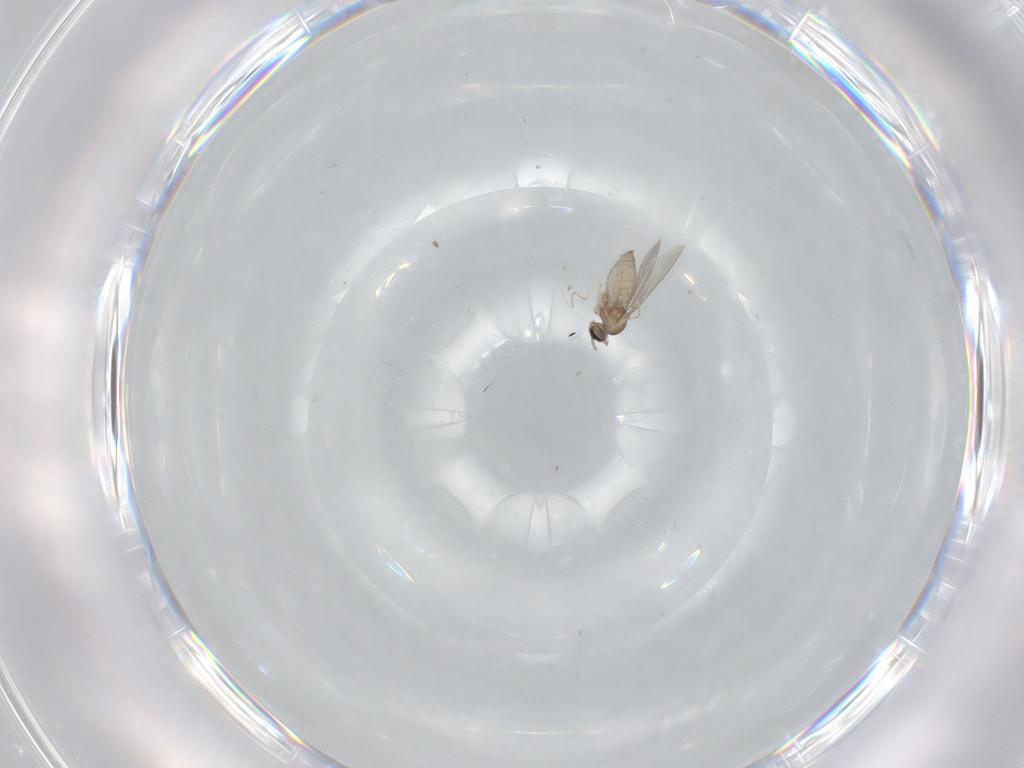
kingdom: Animalia
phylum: Arthropoda
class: Insecta
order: Diptera
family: Cecidomyiidae
